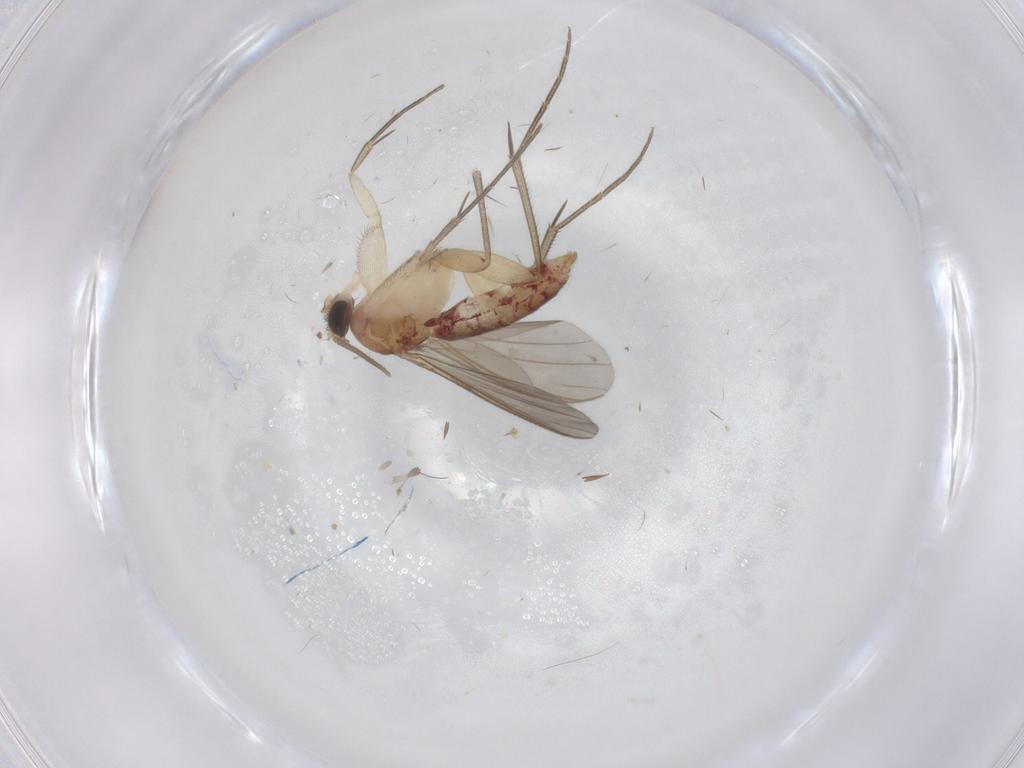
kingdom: Animalia
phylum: Arthropoda
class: Insecta
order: Diptera
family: Mycetophilidae
